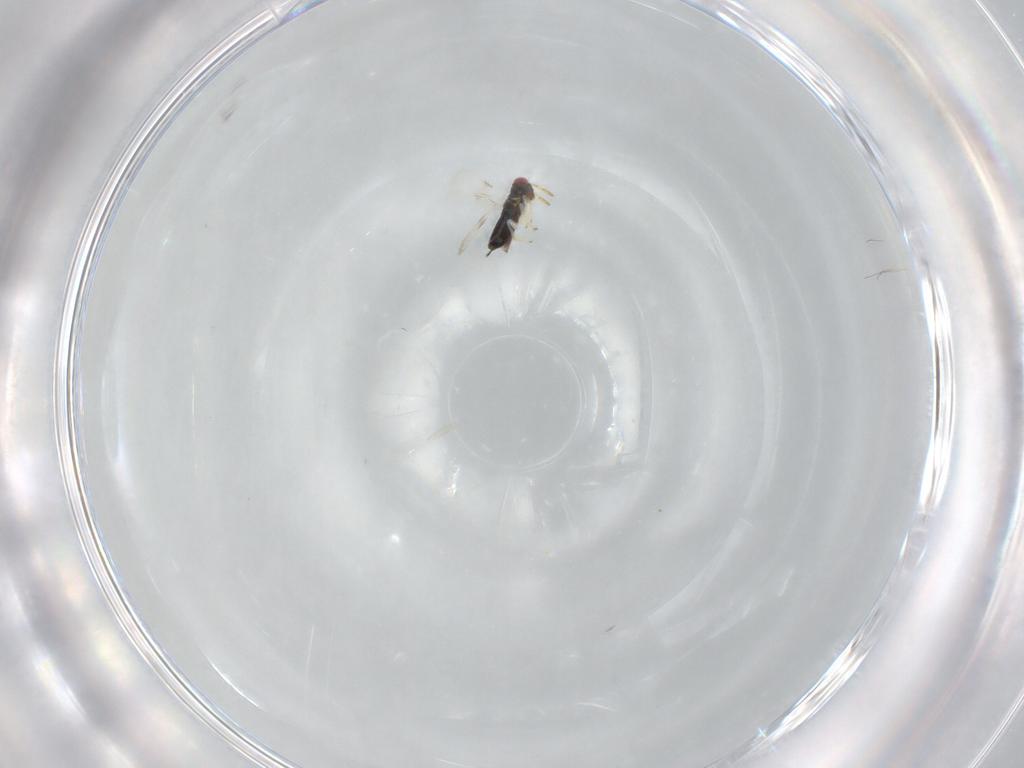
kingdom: Animalia
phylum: Arthropoda
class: Insecta
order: Hymenoptera
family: Azotidae
